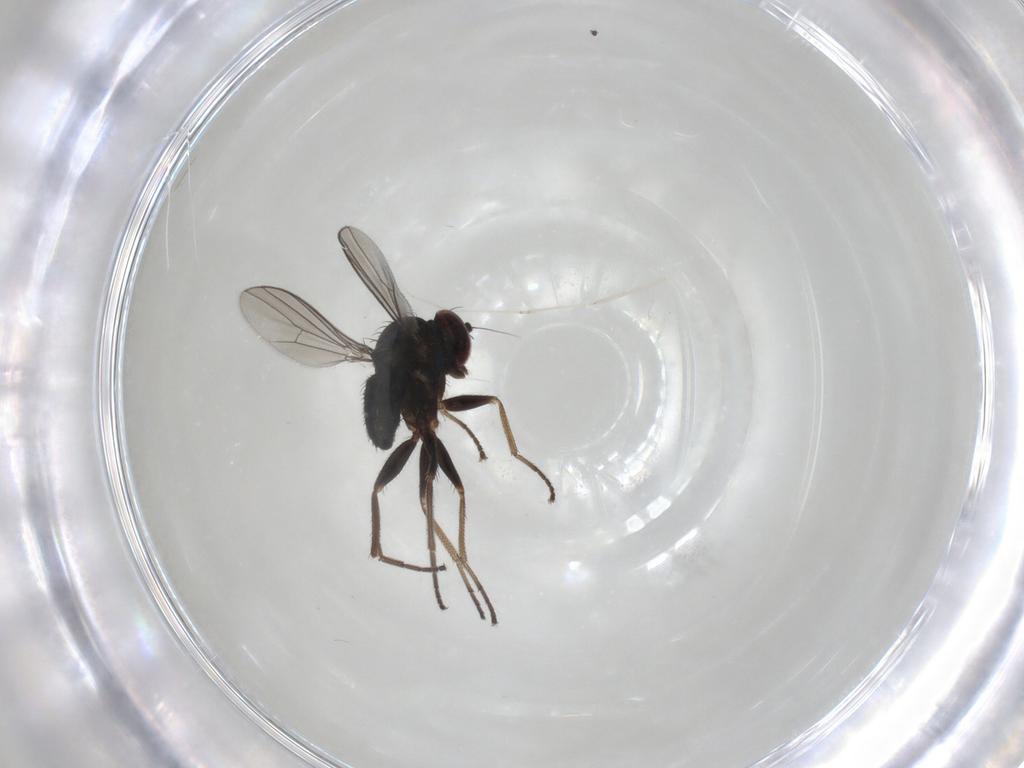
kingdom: Animalia
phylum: Arthropoda
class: Insecta
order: Diptera
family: Dolichopodidae
